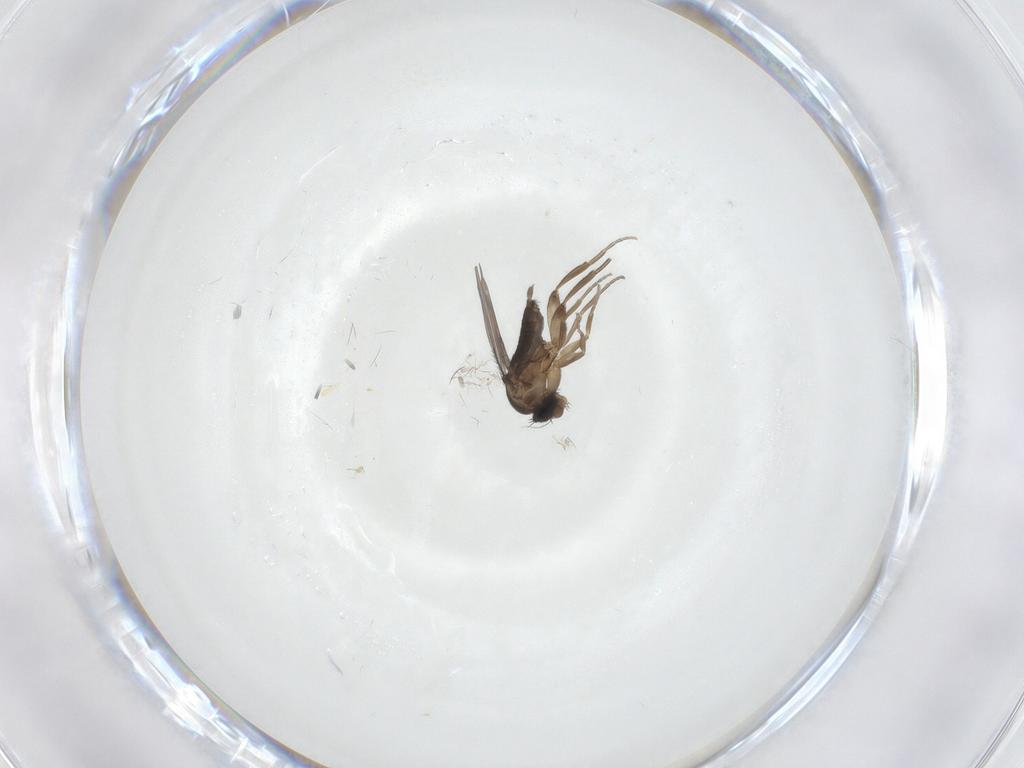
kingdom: Animalia
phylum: Arthropoda
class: Insecta
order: Diptera
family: Phoridae
